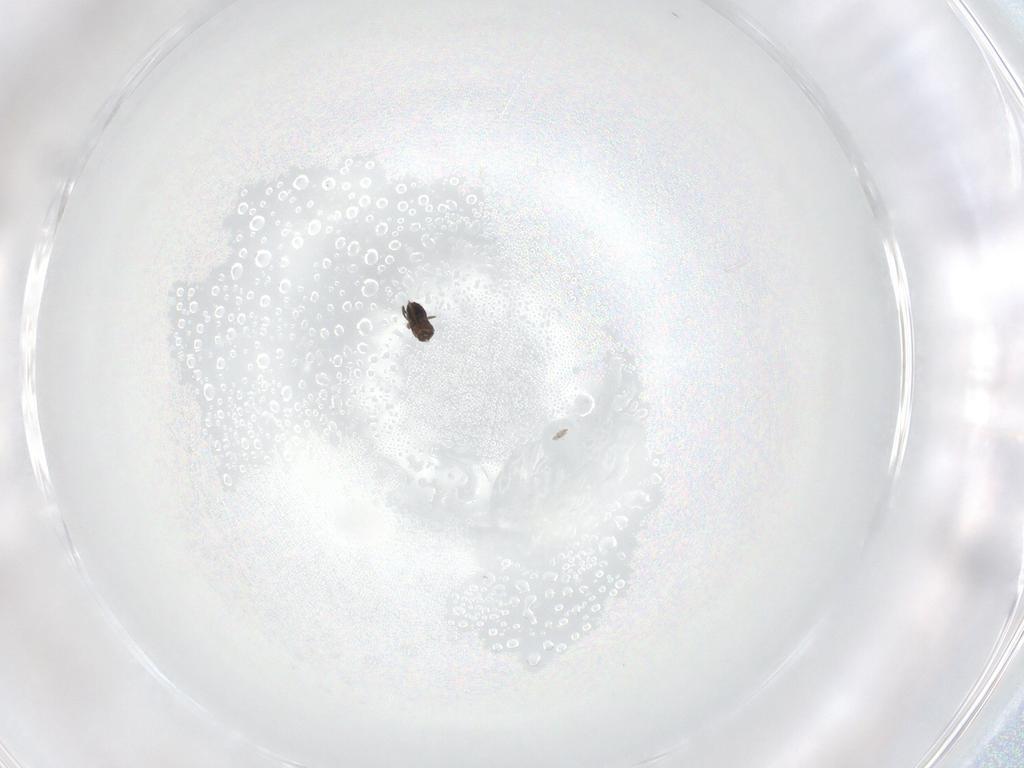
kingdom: Animalia
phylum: Arthropoda
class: Insecta
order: Hymenoptera
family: Mymaridae
